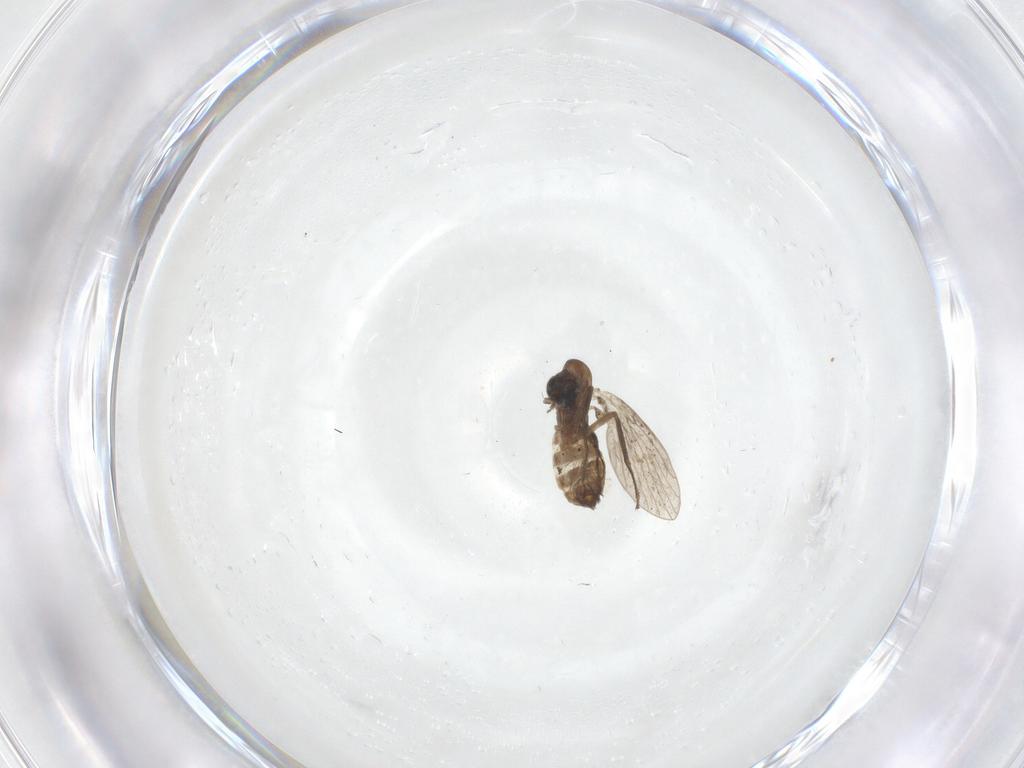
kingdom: Animalia
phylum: Arthropoda
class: Insecta
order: Diptera
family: Psychodidae
